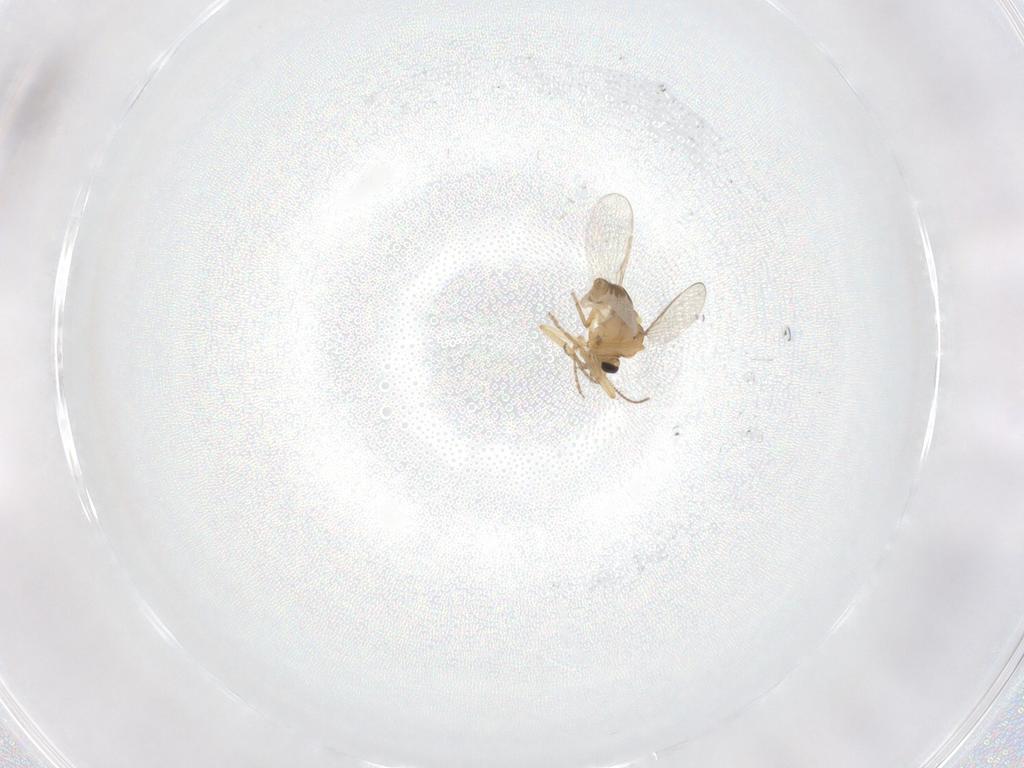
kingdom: Animalia
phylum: Arthropoda
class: Insecta
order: Diptera
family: Ceratopogonidae
